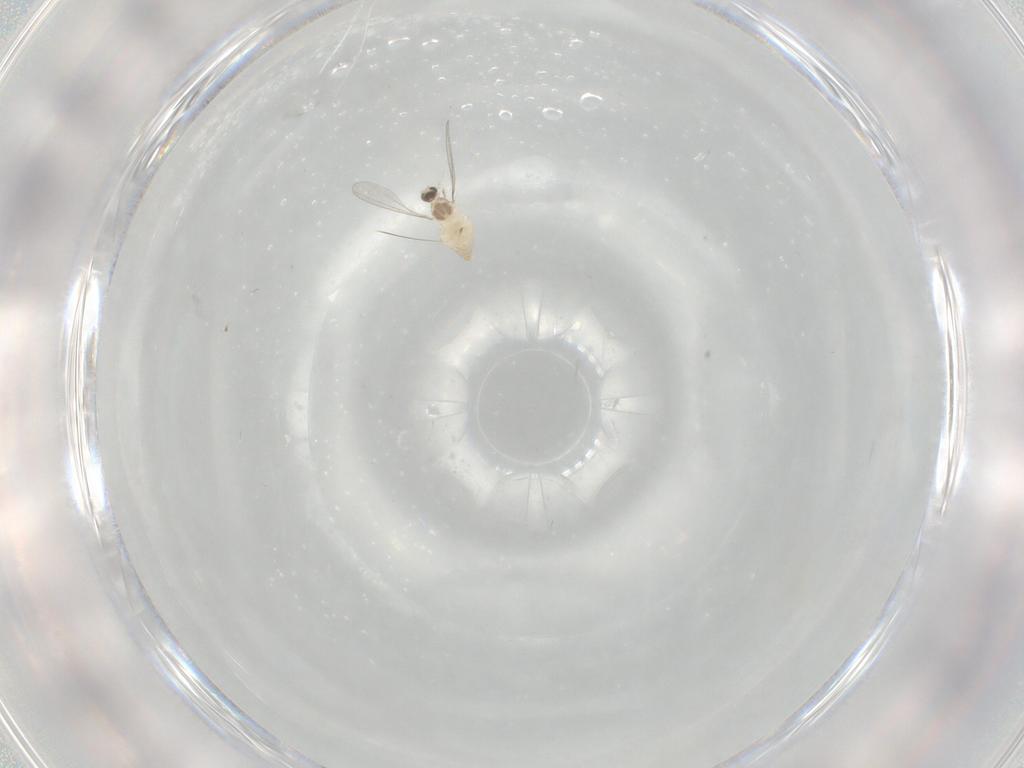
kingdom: Animalia
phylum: Arthropoda
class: Insecta
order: Diptera
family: Cecidomyiidae
